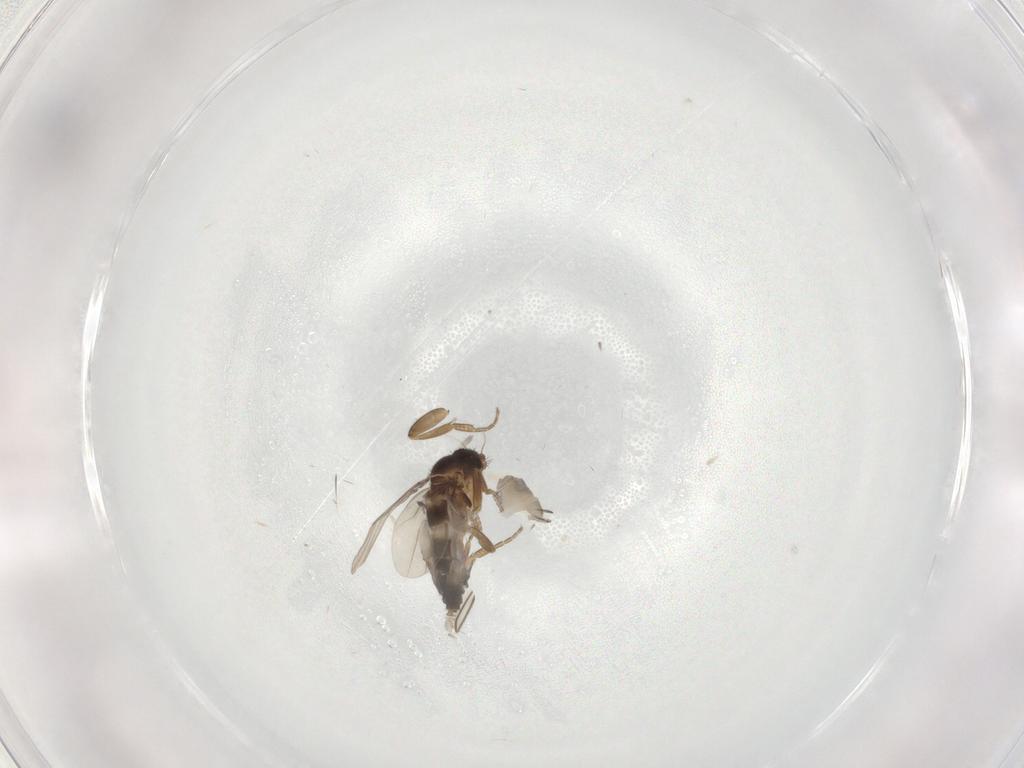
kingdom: Animalia
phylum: Arthropoda
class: Insecta
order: Diptera
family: Phoridae
